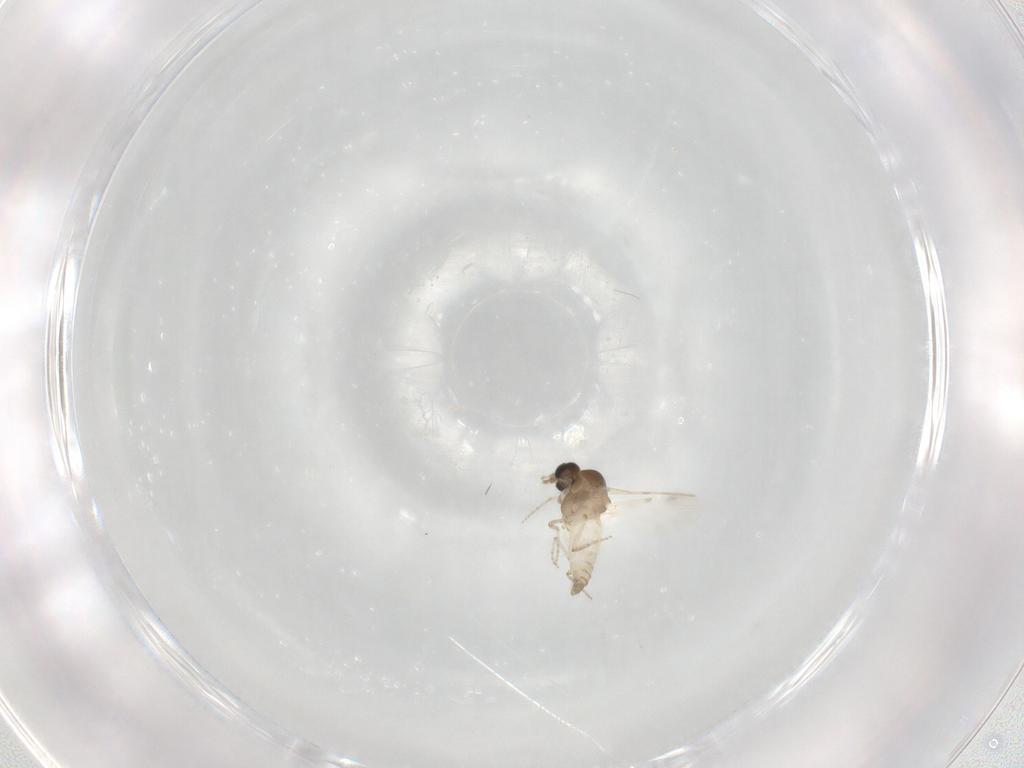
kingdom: Animalia
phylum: Arthropoda
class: Insecta
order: Diptera
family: Ceratopogonidae
